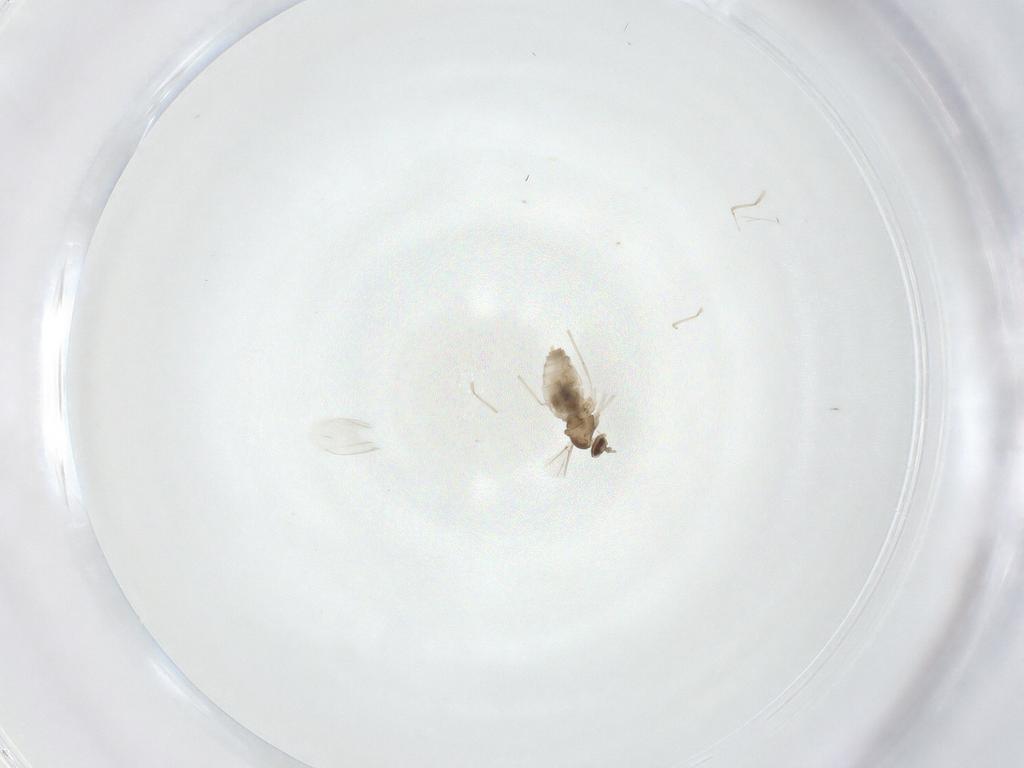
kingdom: Animalia
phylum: Arthropoda
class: Insecta
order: Diptera
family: Cecidomyiidae
